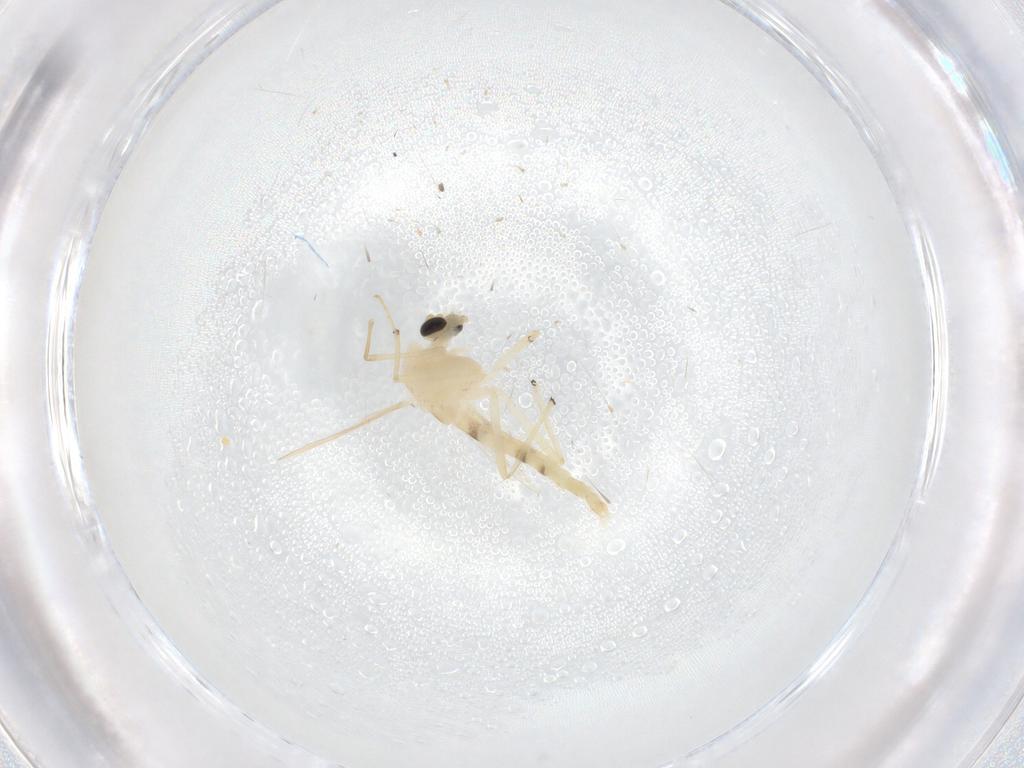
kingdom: Animalia
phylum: Arthropoda
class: Insecta
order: Diptera
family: Chironomidae
